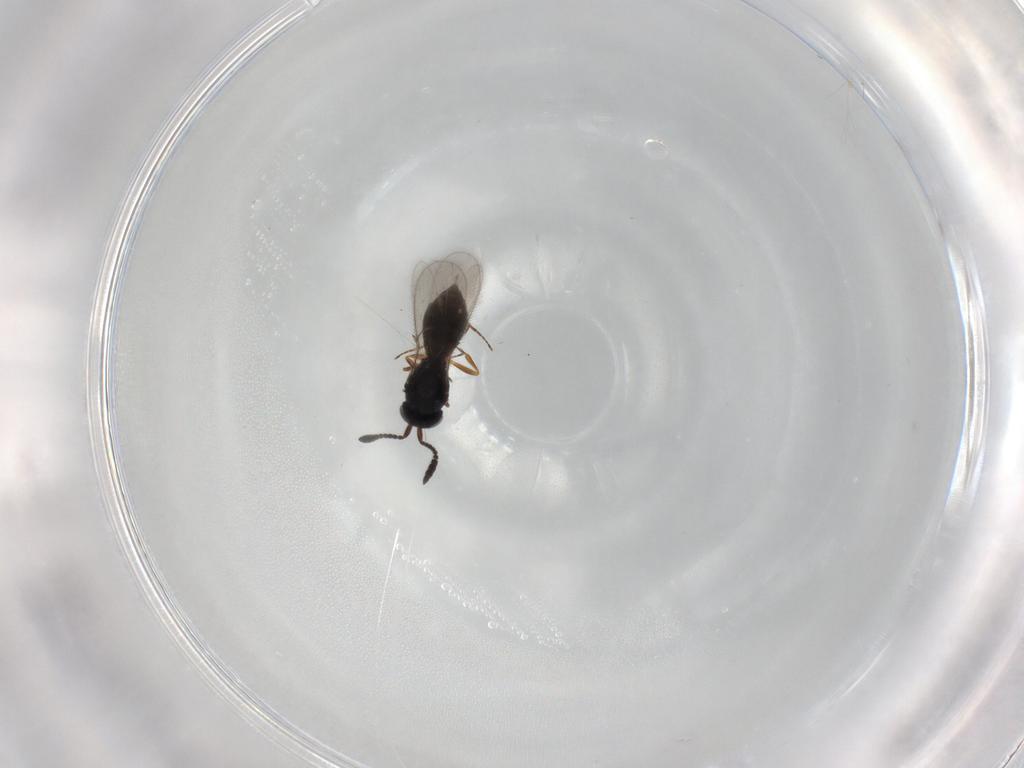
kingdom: Animalia
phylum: Arthropoda
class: Insecta
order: Hymenoptera
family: Scelionidae
